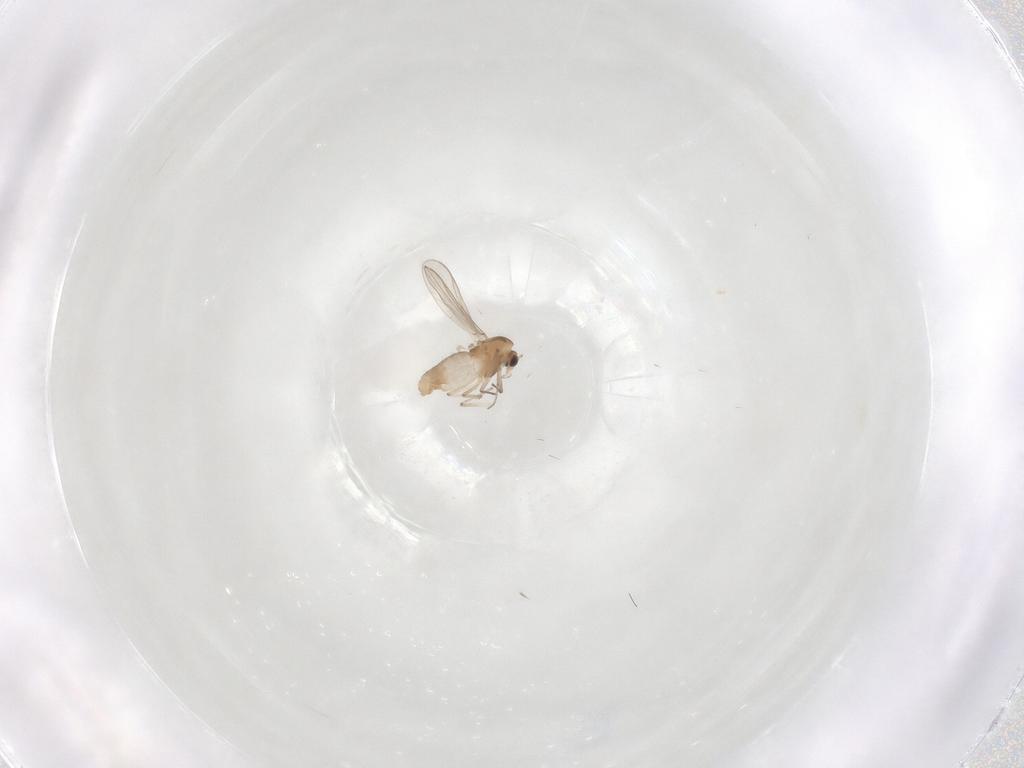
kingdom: Animalia
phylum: Arthropoda
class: Insecta
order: Diptera
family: Chironomidae
